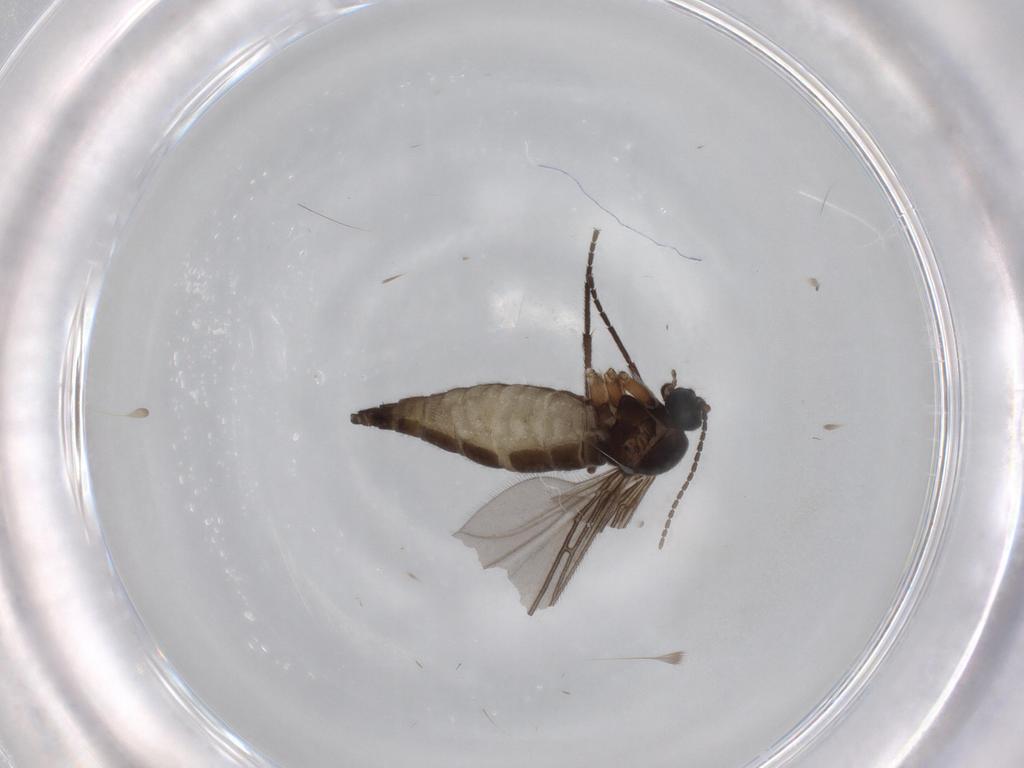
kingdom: Animalia
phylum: Arthropoda
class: Insecta
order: Diptera
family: Sciaridae
